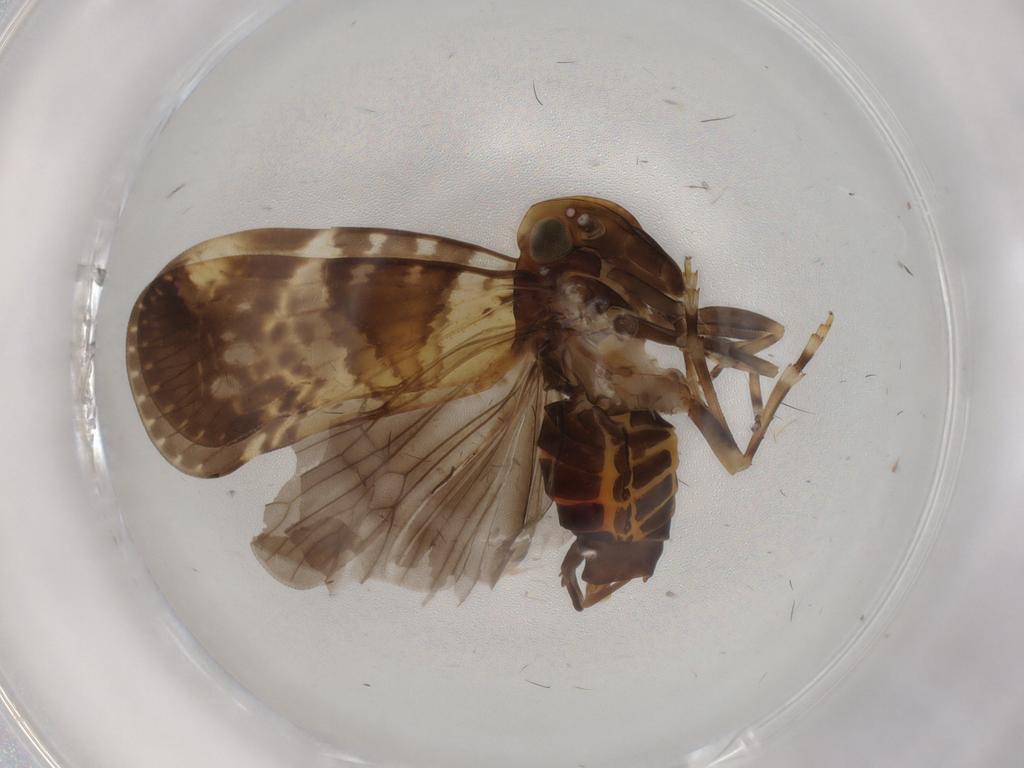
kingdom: Animalia
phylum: Arthropoda
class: Insecta
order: Hemiptera
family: Cixiidae
